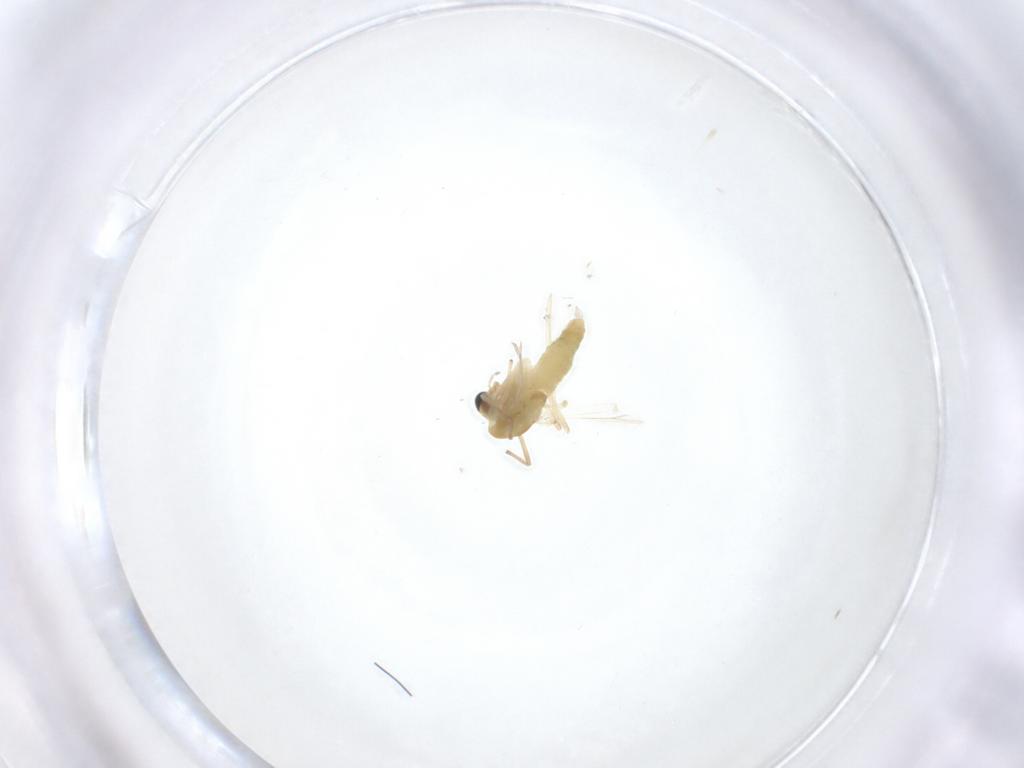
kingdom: Animalia
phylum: Arthropoda
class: Insecta
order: Diptera
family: Chironomidae
